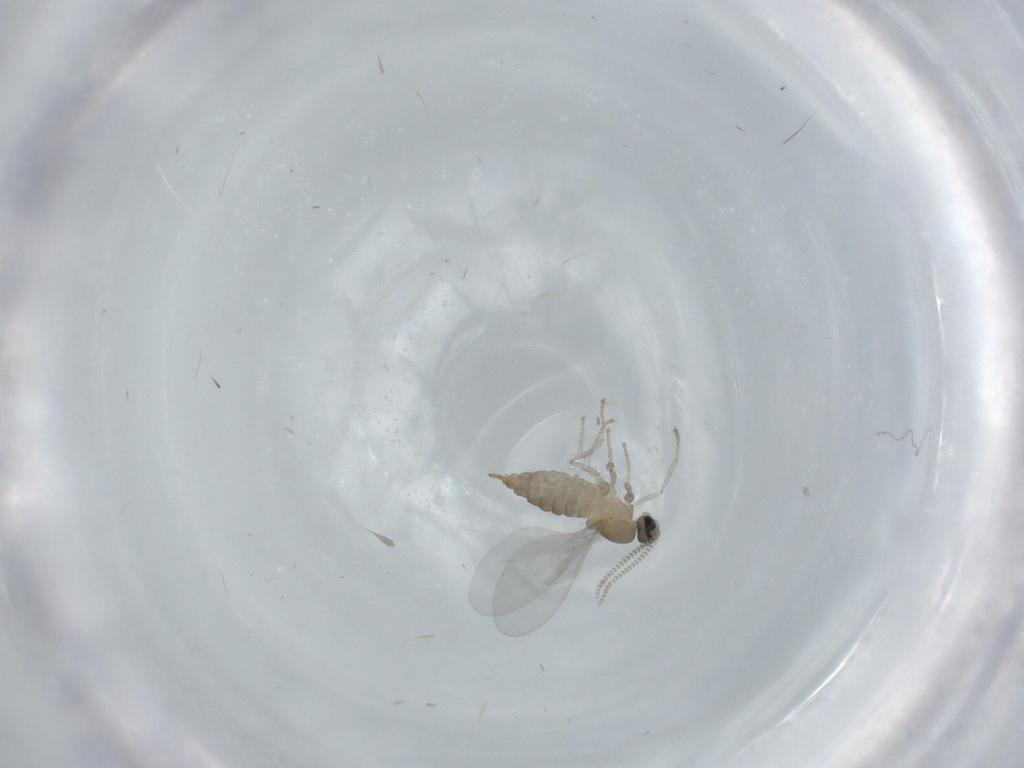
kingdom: Animalia
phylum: Arthropoda
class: Insecta
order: Diptera
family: Cecidomyiidae
